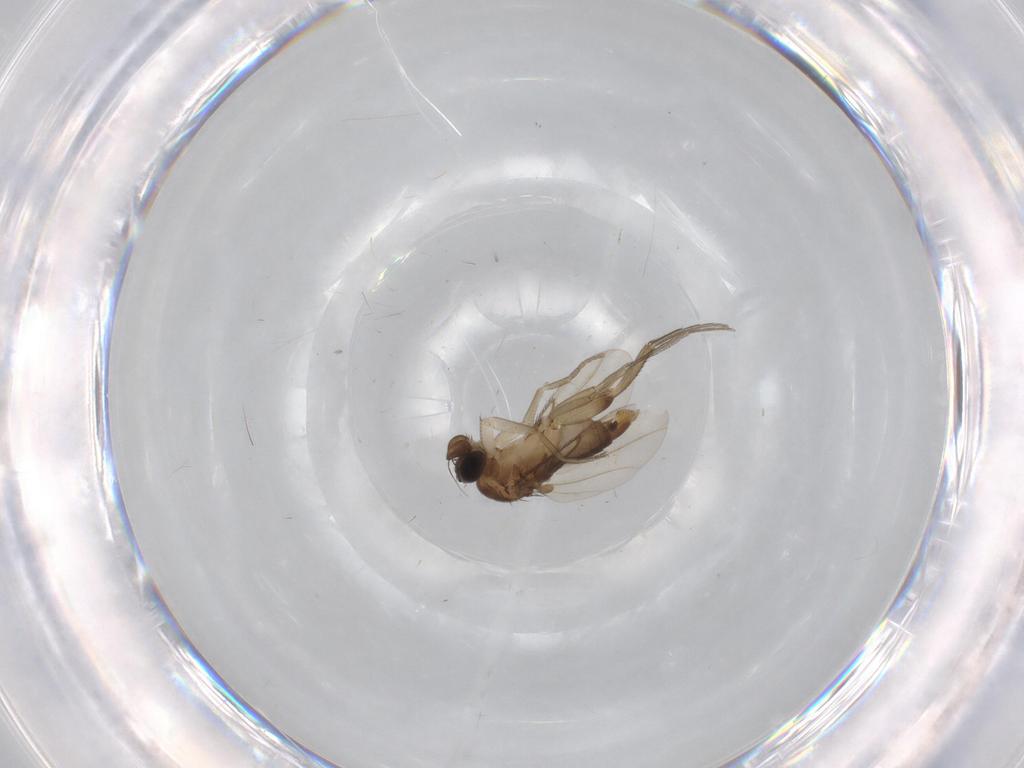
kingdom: Animalia
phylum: Arthropoda
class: Insecta
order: Diptera
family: Phoridae
